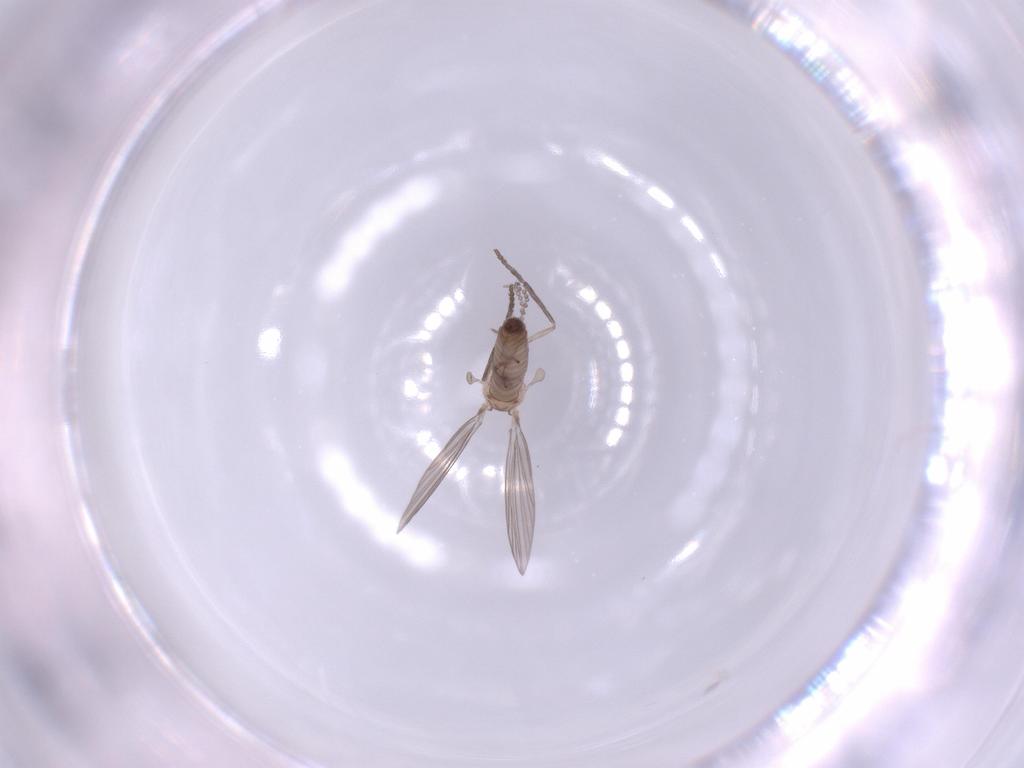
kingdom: Animalia
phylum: Arthropoda
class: Insecta
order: Diptera
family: Psychodidae
